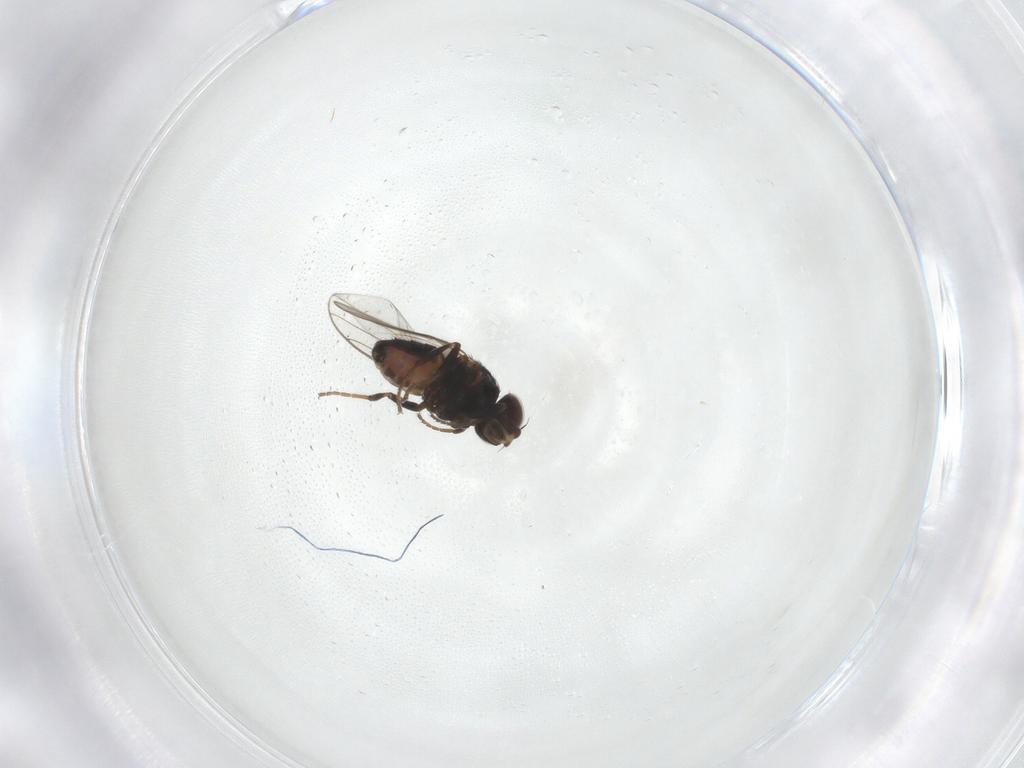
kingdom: Animalia
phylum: Arthropoda
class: Insecta
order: Diptera
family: Chloropidae
